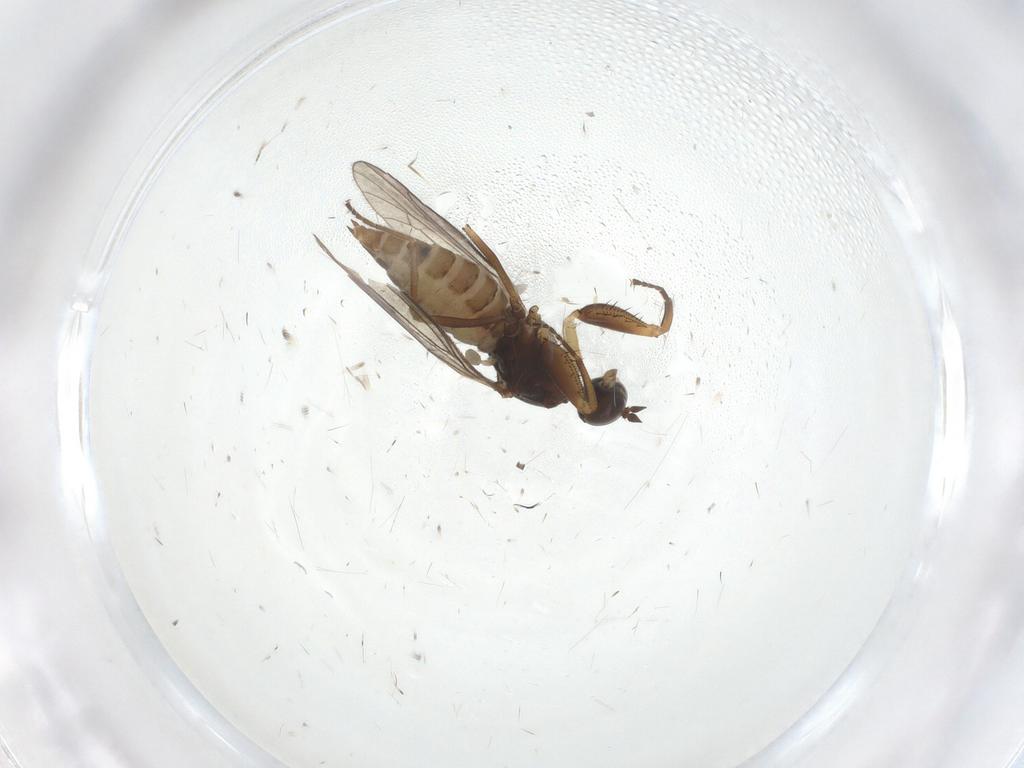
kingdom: Animalia
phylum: Arthropoda
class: Insecta
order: Diptera
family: Empididae
